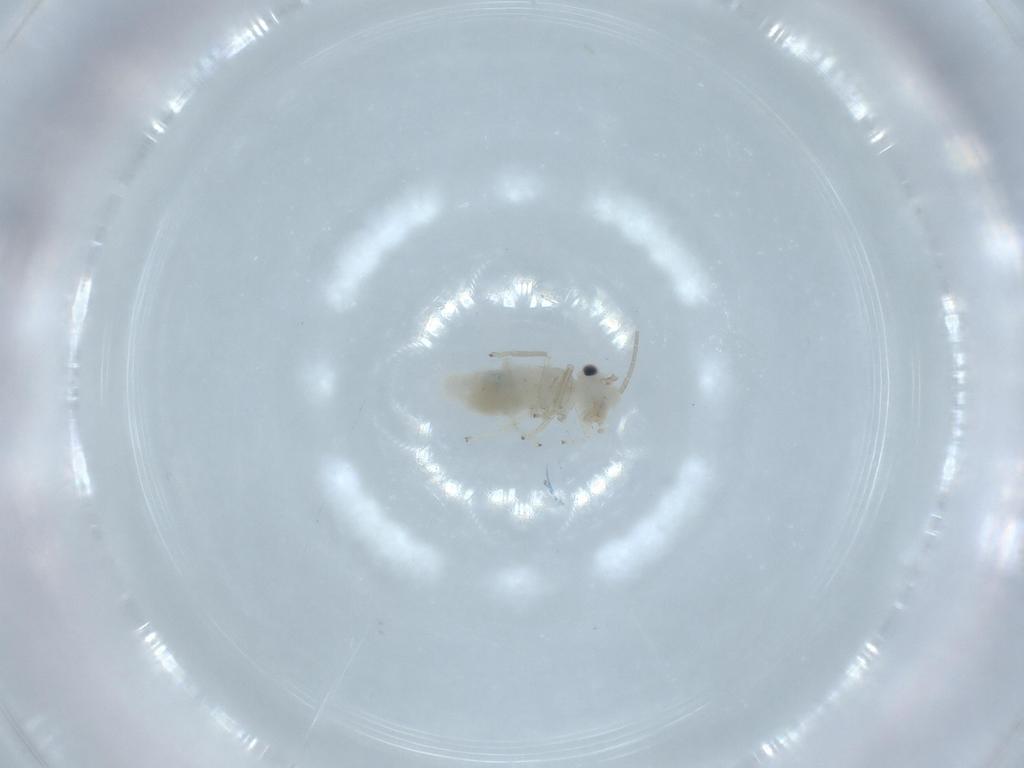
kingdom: Animalia
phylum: Arthropoda
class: Insecta
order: Psocodea
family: Caeciliusidae
